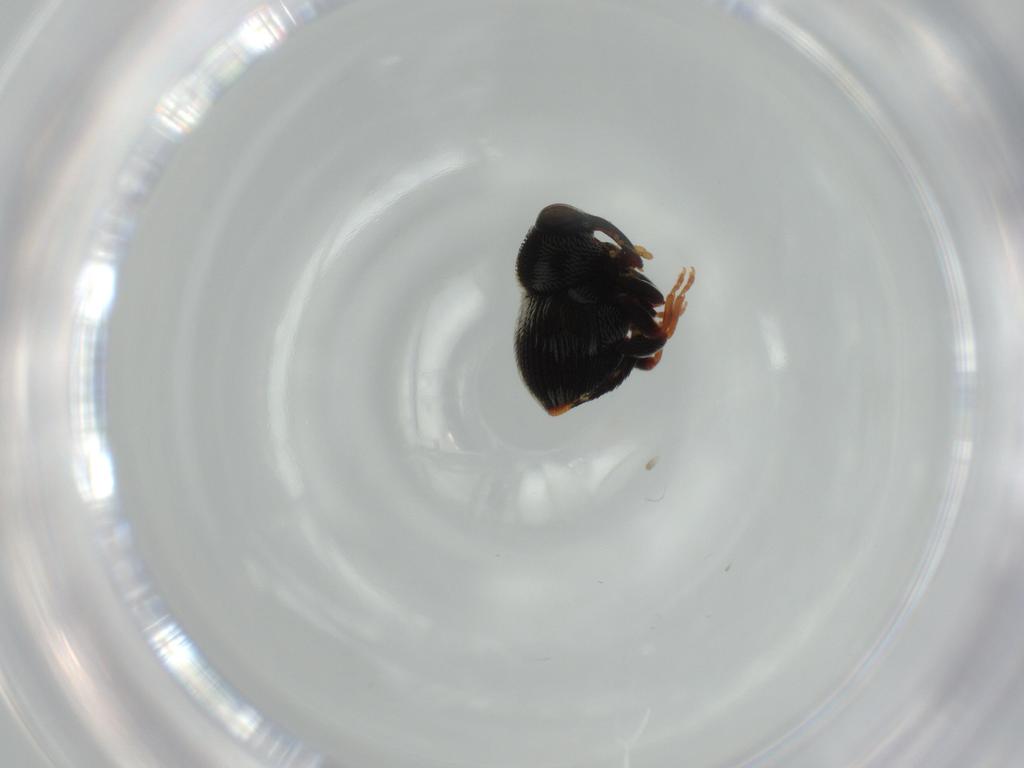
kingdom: Animalia
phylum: Arthropoda
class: Insecta
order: Coleoptera
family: Curculionidae
